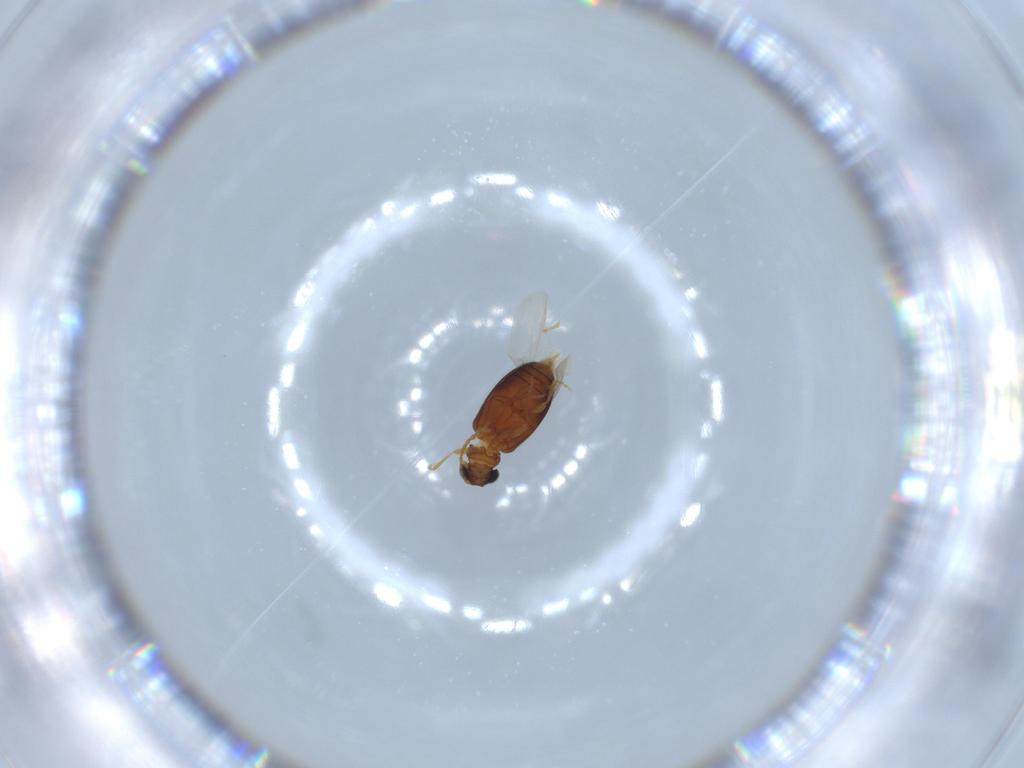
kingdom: Animalia
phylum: Arthropoda
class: Insecta
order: Coleoptera
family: Aderidae
